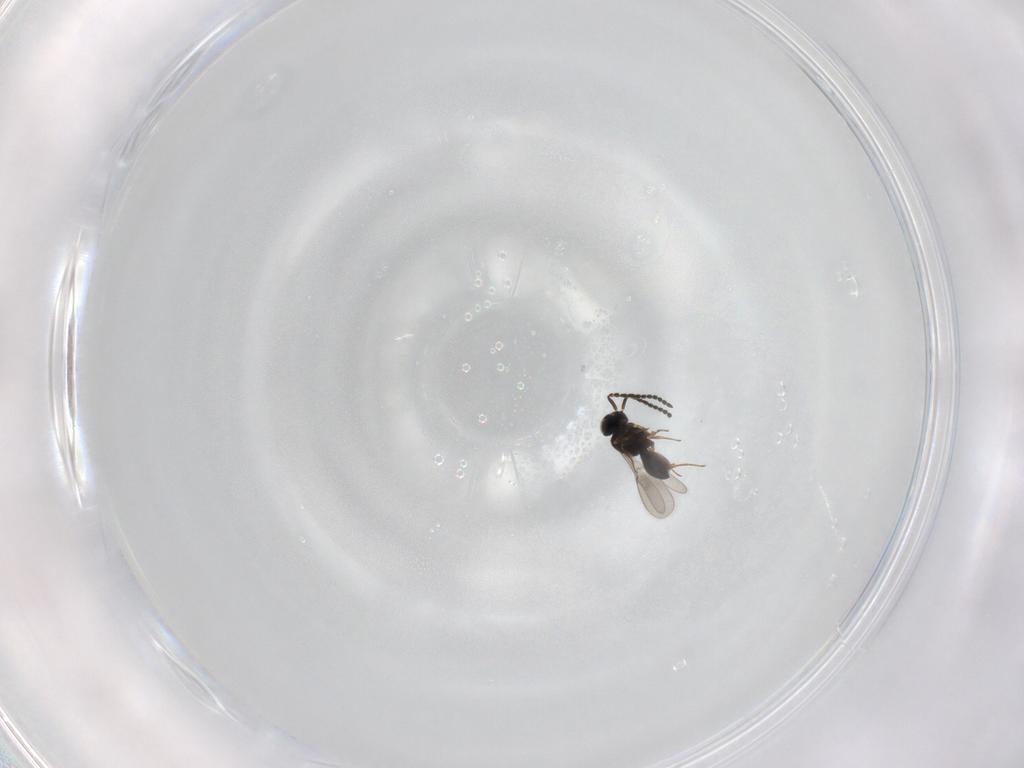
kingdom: Animalia
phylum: Arthropoda
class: Insecta
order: Hymenoptera
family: Scelionidae
